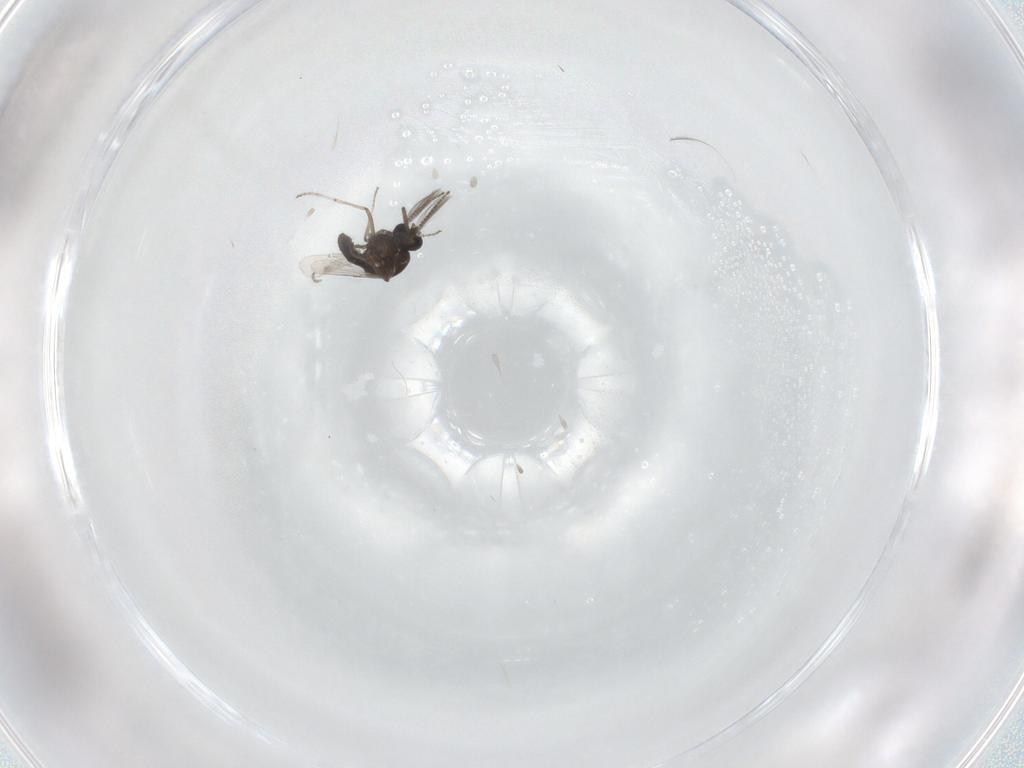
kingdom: Animalia
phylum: Arthropoda
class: Insecta
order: Diptera
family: Ceratopogonidae
